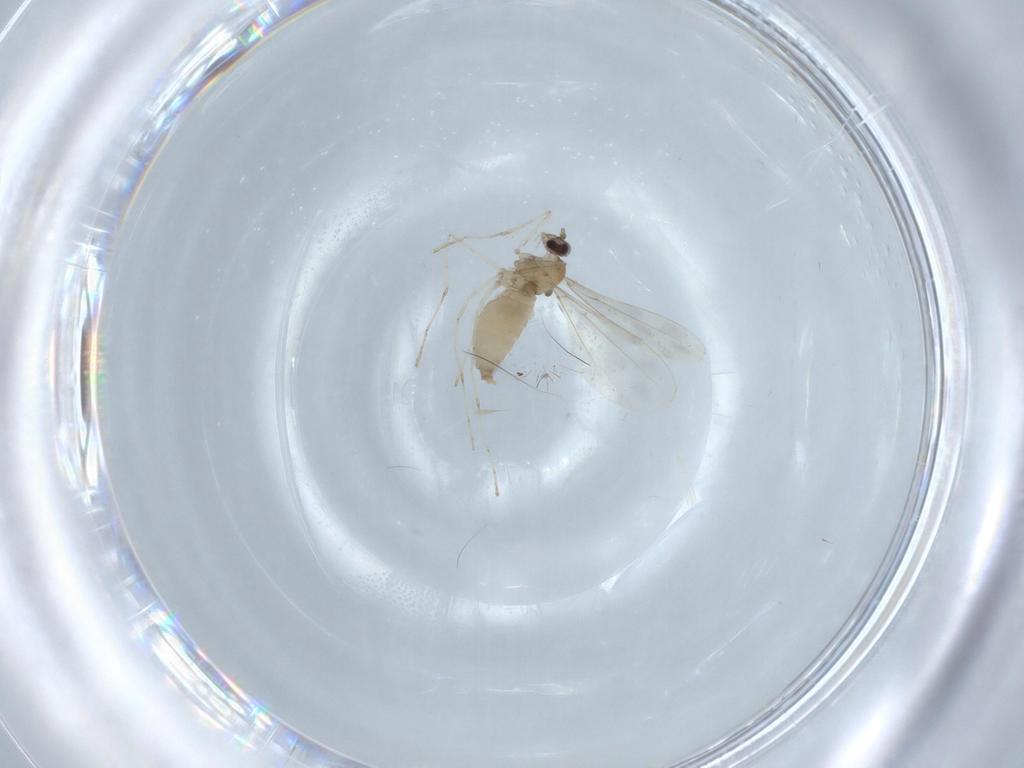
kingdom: Animalia
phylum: Arthropoda
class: Insecta
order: Diptera
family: Cecidomyiidae
